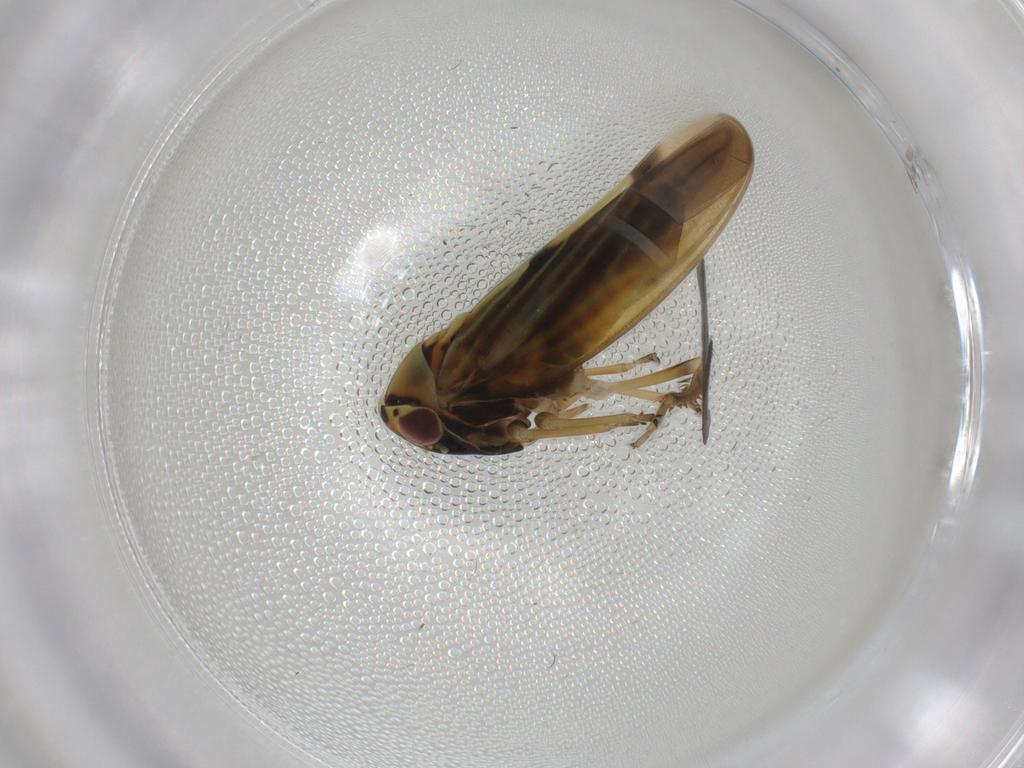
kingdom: Animalia
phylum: Arthropoda
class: Insecta
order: Hemiptera
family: Cicadellidae
